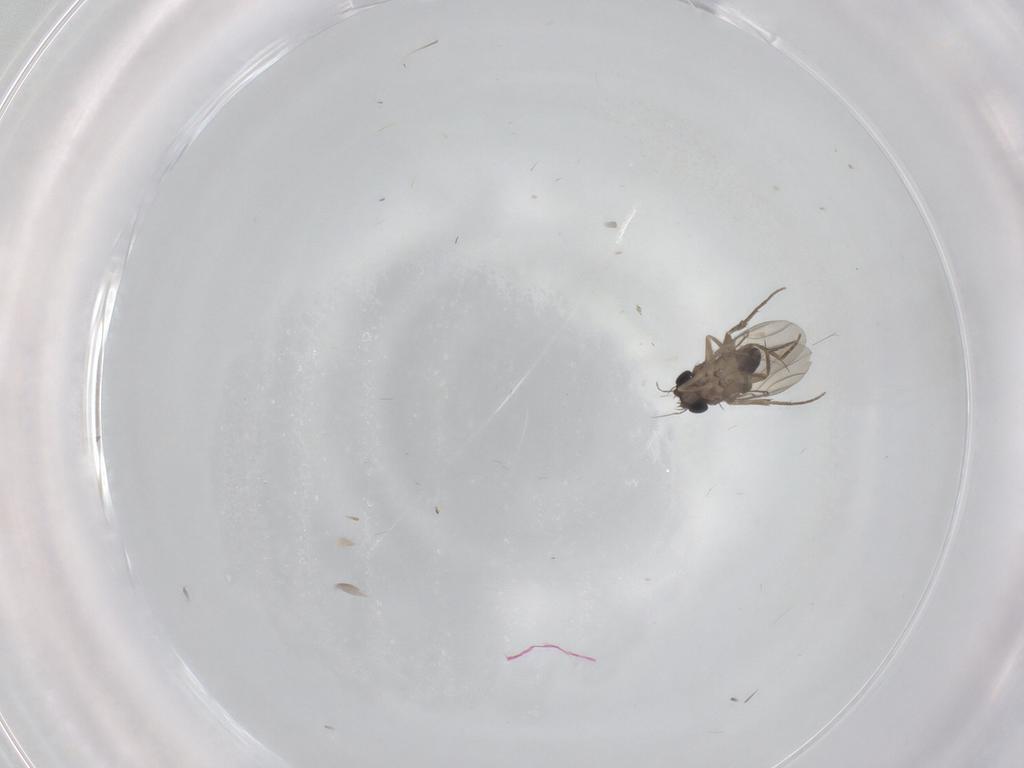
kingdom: Animalia
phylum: Arthropoda
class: Insecta
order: Diptera
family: Phoridae
